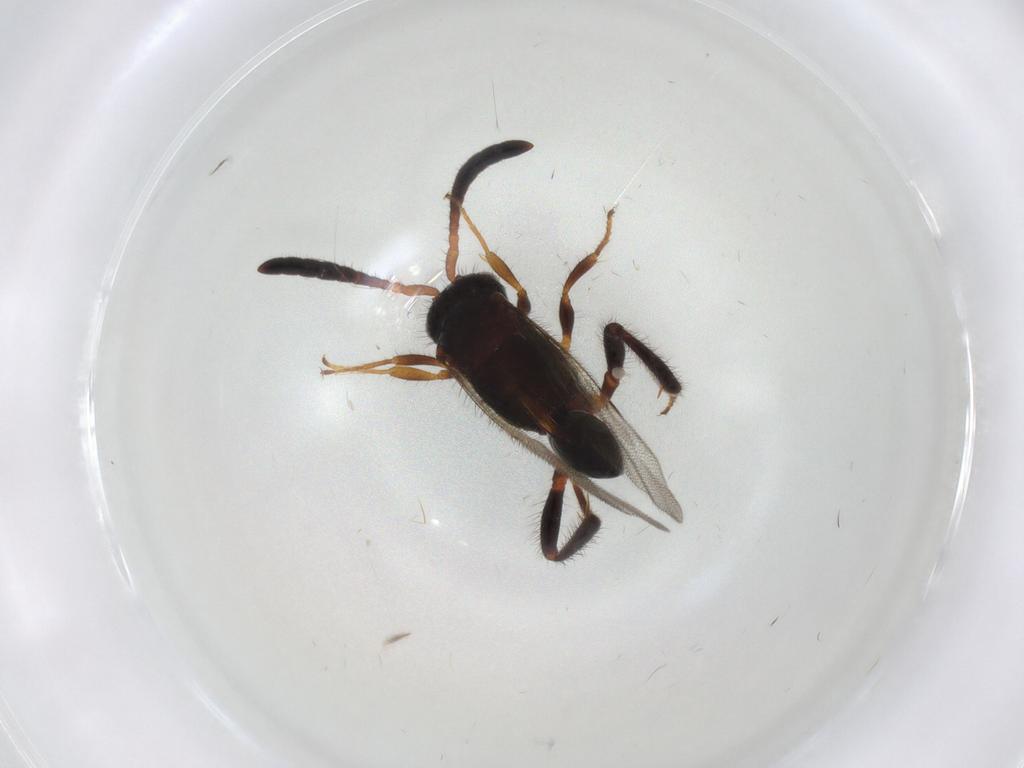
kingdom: Animalia
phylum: Arthropoda
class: Insecta
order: Hymenoptera
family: Evaniidae
